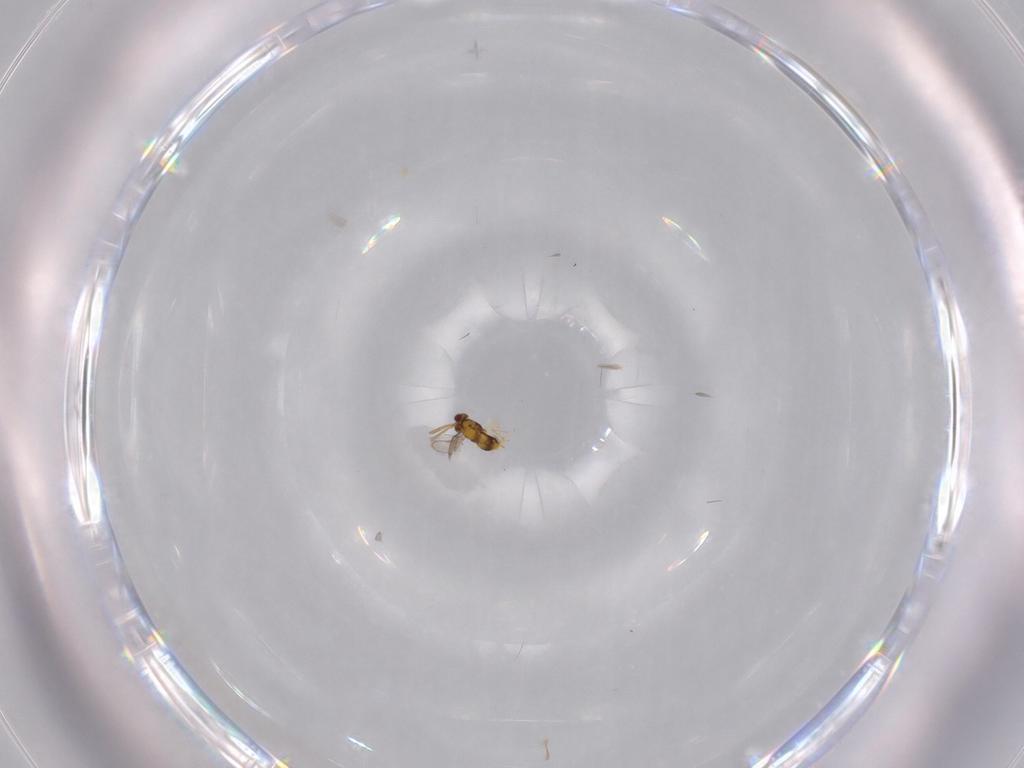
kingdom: Animalia
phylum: Arthropoda
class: Insecta
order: Hymenoptera
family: Aphelinidae
